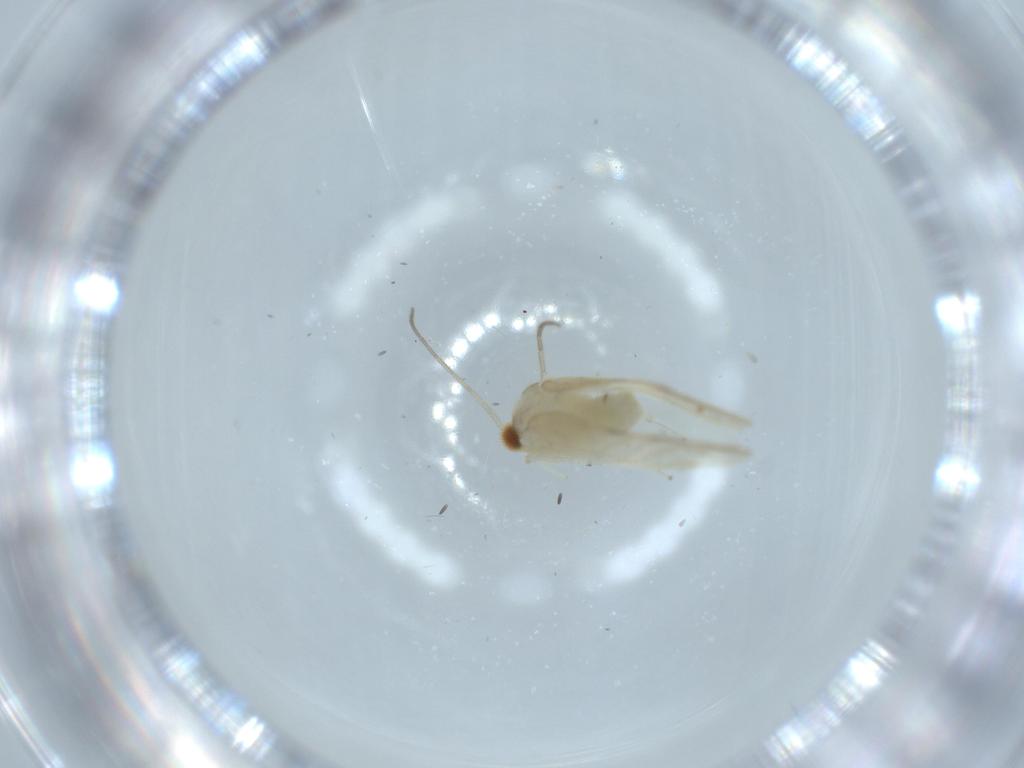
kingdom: Animalia
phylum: Arthropoda
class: Insecta
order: Psocodea
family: Caeciliusidae
